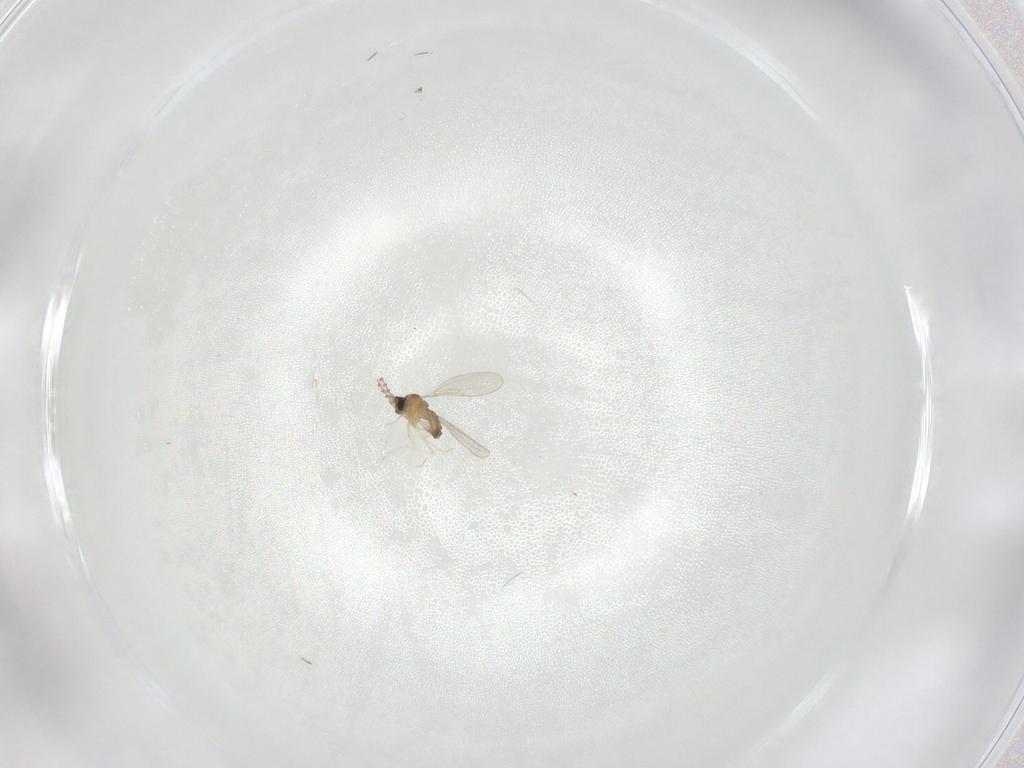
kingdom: Animalia
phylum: Arthropoda
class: Insecta
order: Diptera
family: Cecidomyiidae
